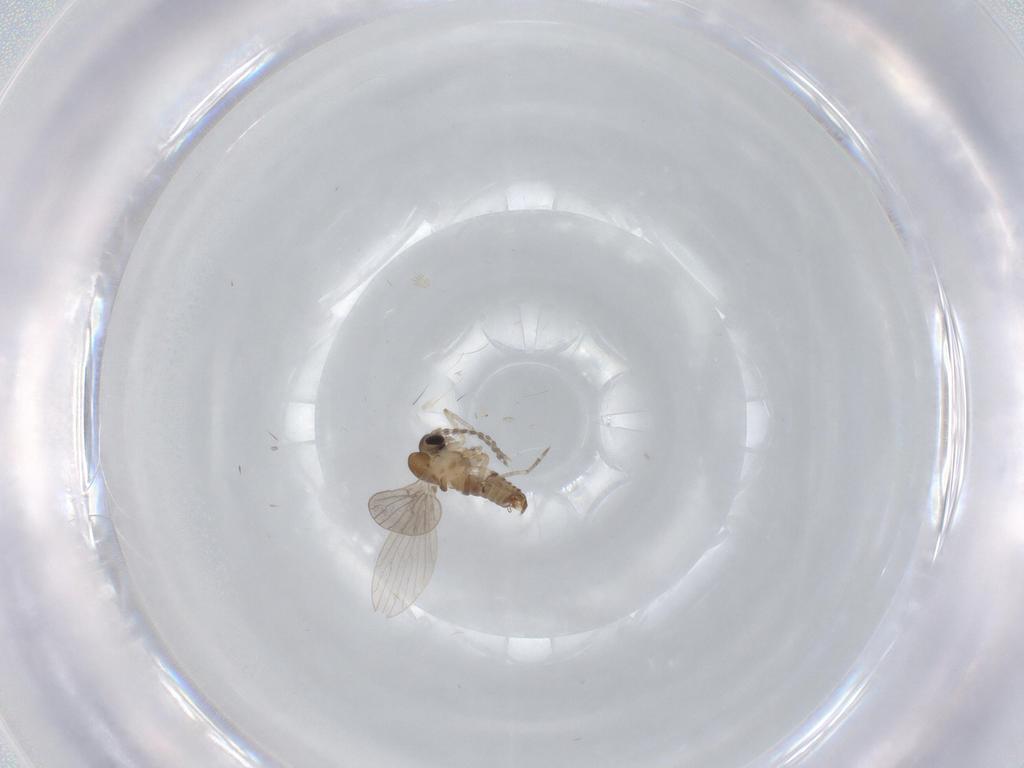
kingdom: Animalia
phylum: Arthropoda
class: Insecta
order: Diptera
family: Psychodidae
